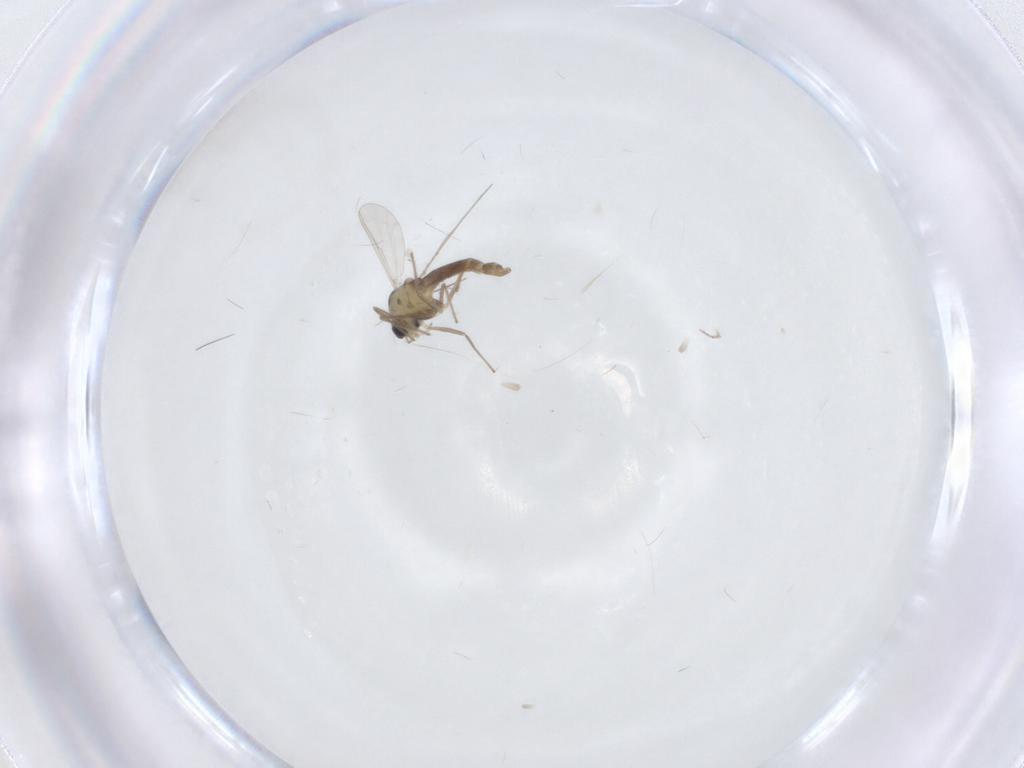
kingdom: Animalia
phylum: Arthropoda
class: Insecta
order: Diptera
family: Chironomidae
